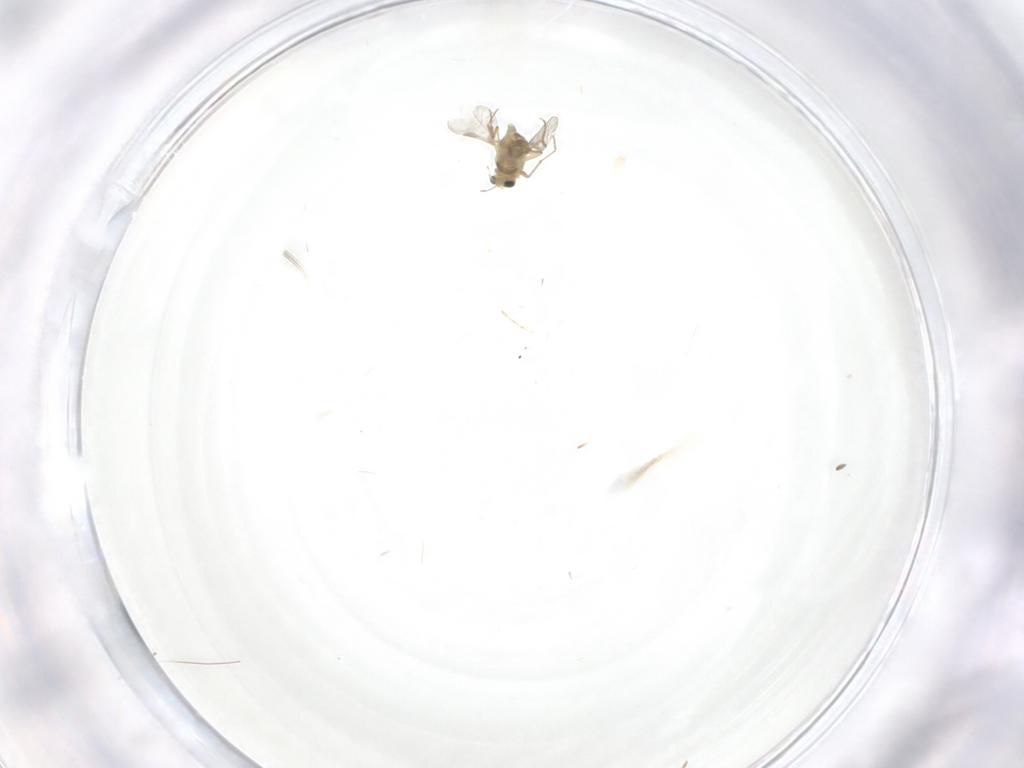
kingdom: Animalia
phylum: Arthropoda
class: Insecta
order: Diptera
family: Chironomidae
